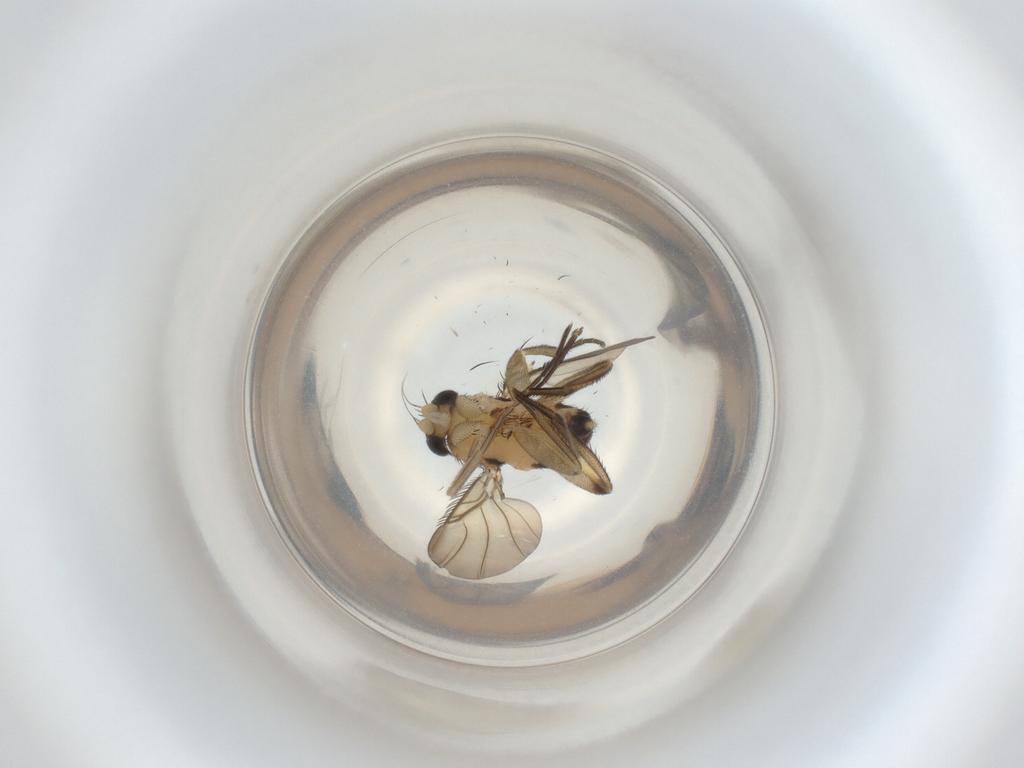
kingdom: Animalia
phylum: Arthropoda
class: Insecta
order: Diptera
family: Phoridae
